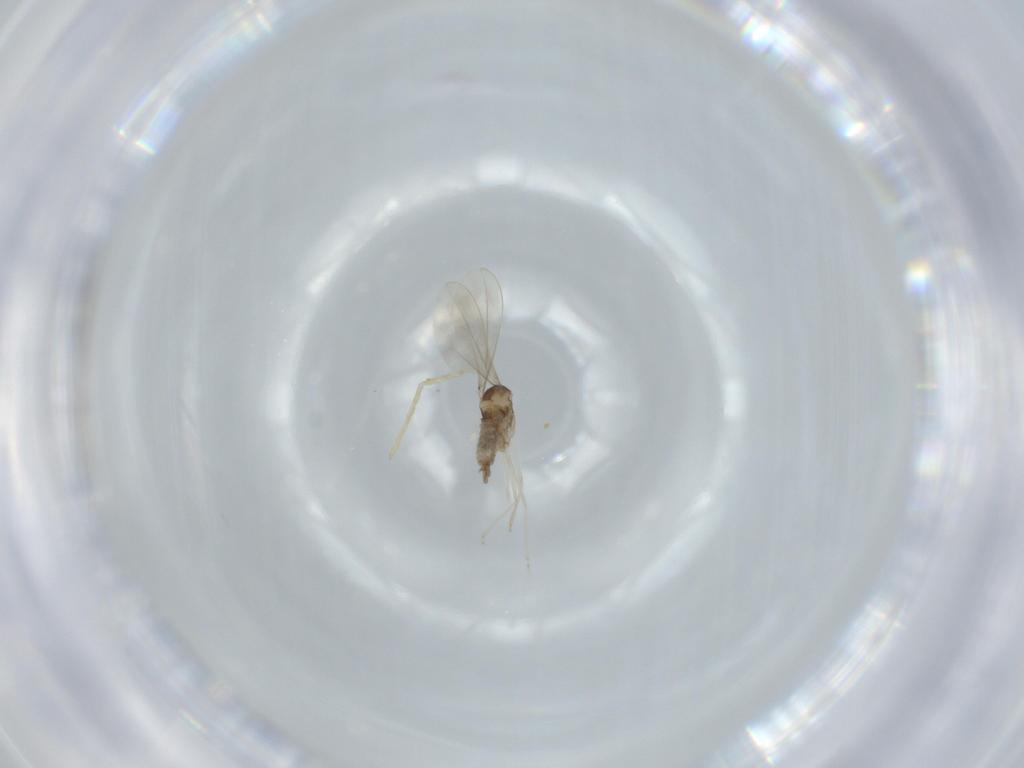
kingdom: Animalia
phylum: Arthropoda
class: Insecta
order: Diptera
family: Cecidomyiidae
